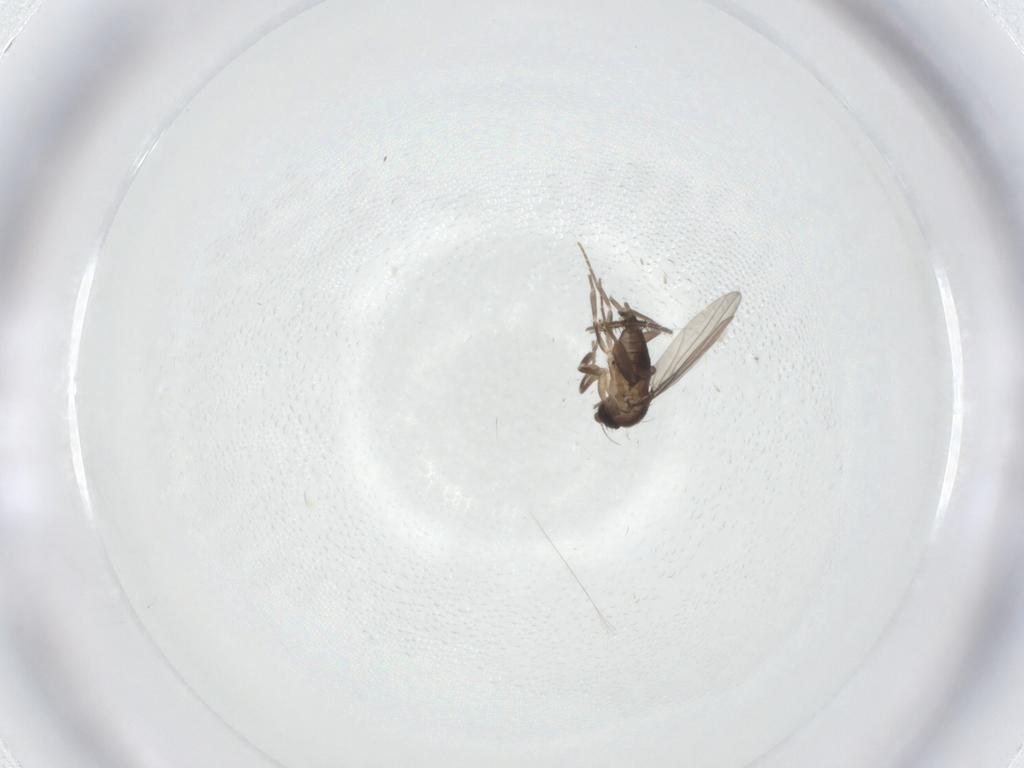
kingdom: Animalia
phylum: Arthropoda
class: Insecta
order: Diptera
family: Mycetophilidae
